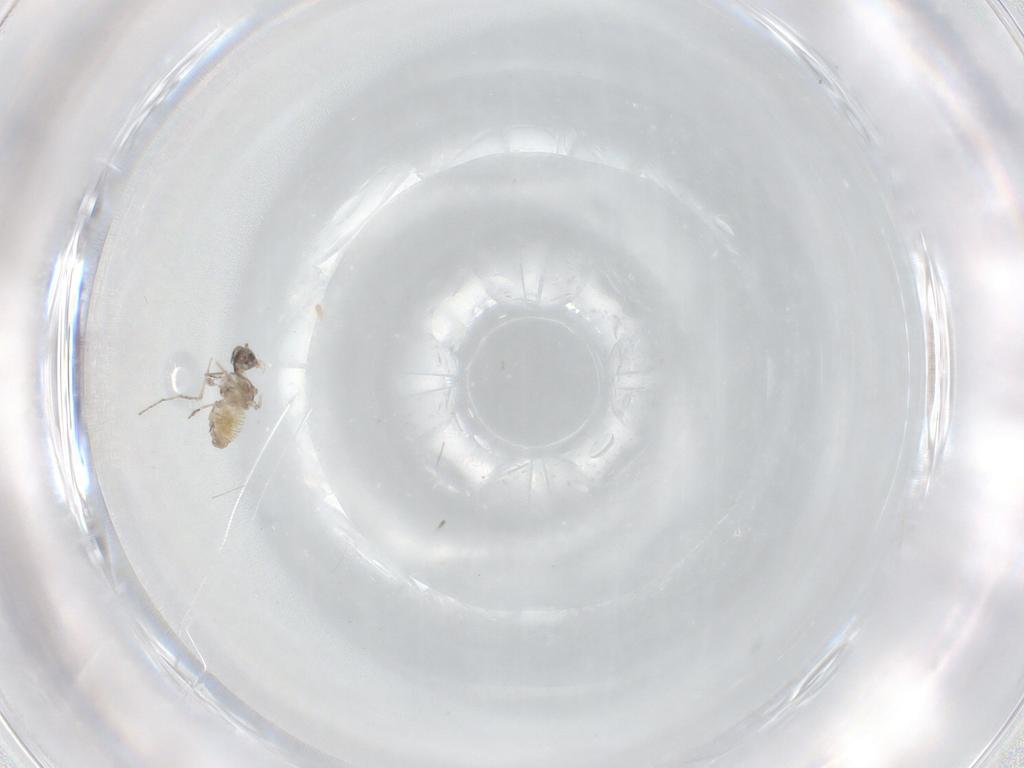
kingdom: Animalia
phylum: Arthropoda
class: Insecta
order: Diptera
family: Cecidomyiidae
